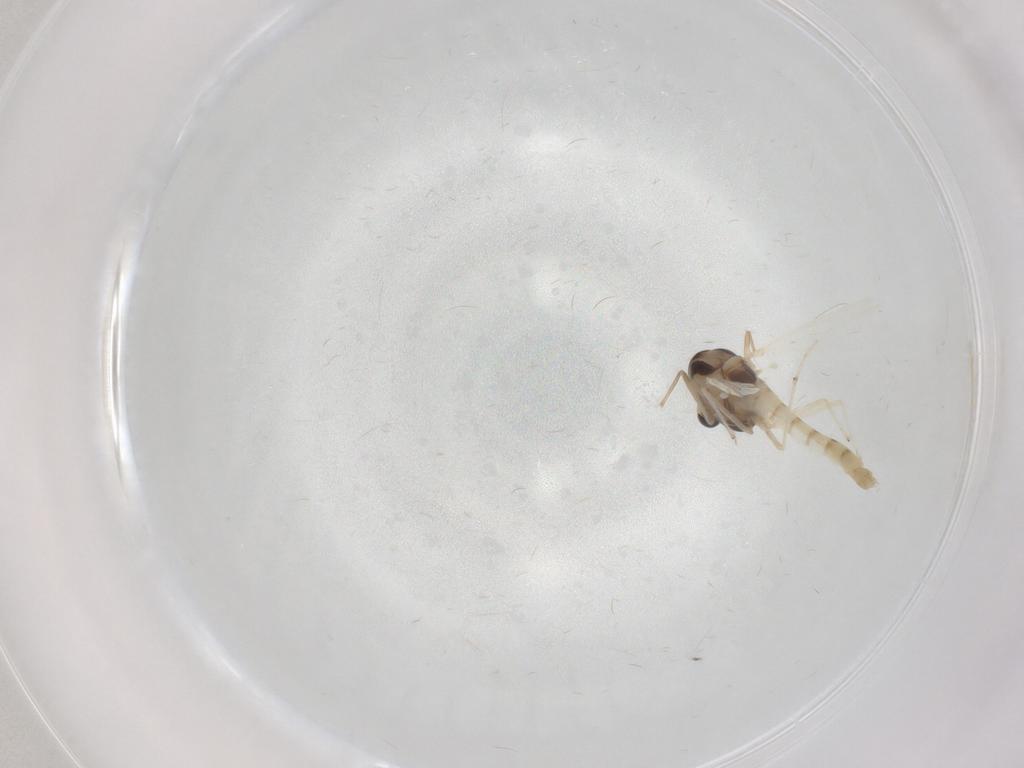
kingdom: Animalia
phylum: Arthropoda
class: Insecta
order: Diptera
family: Chironomidae
